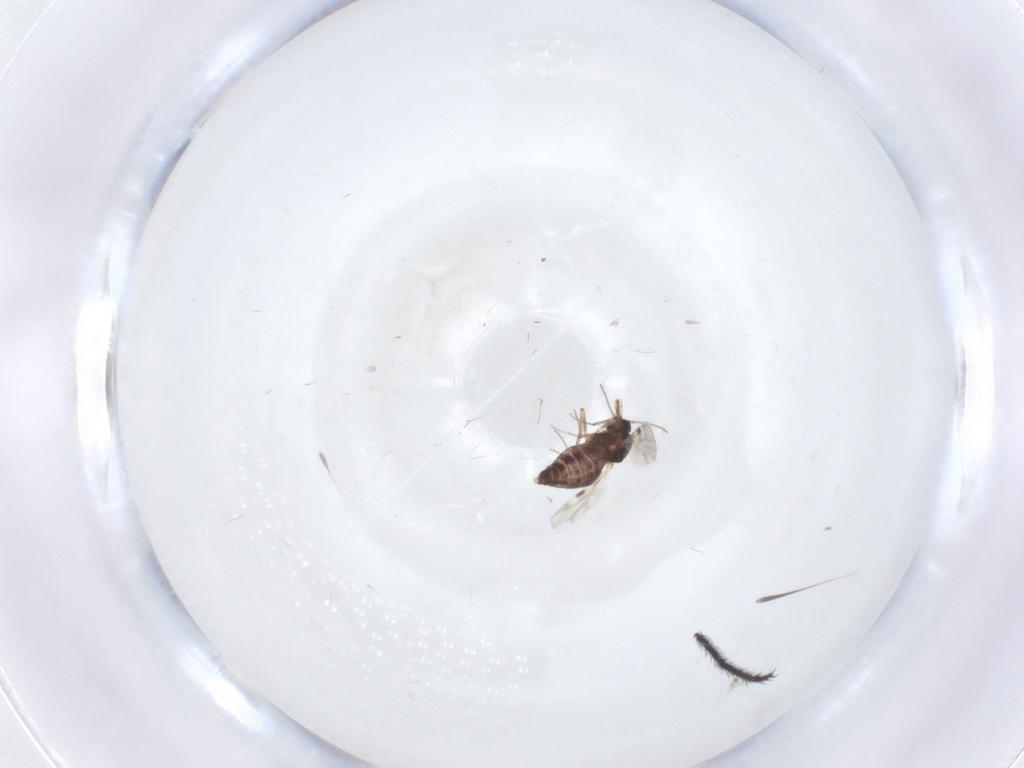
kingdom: Animalia
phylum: Arthropoda
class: Insecta
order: Diptera
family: Limoniidae
